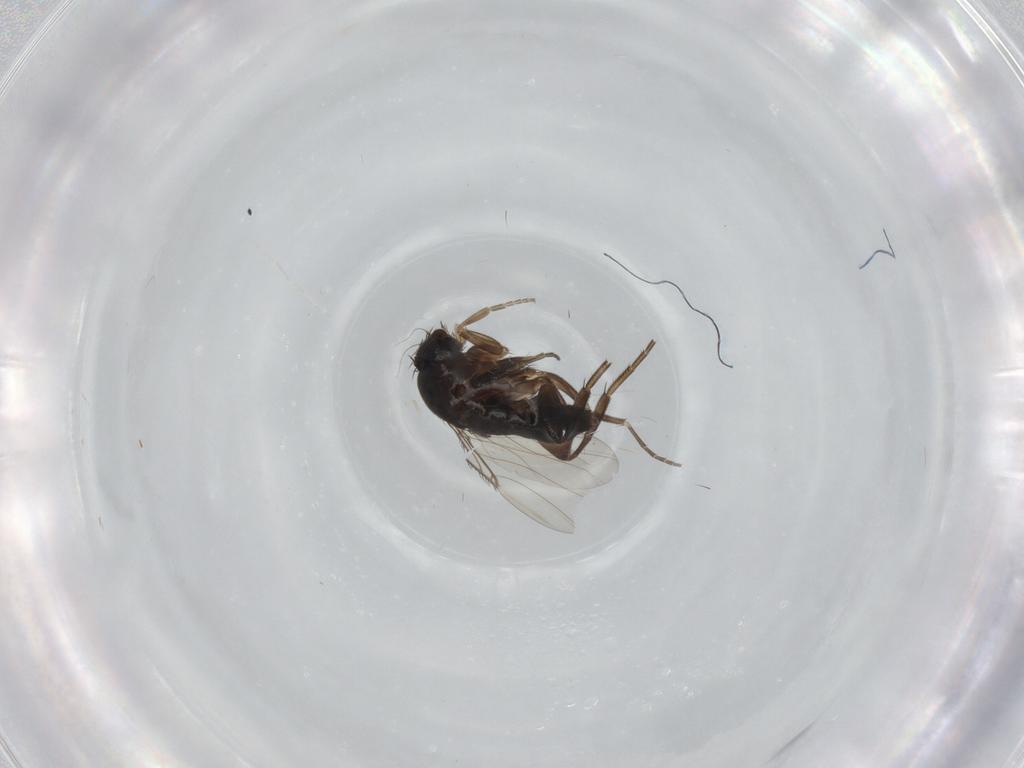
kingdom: Animalia
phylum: Arthropoda
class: Insecta
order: Diptera
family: Phoridae
